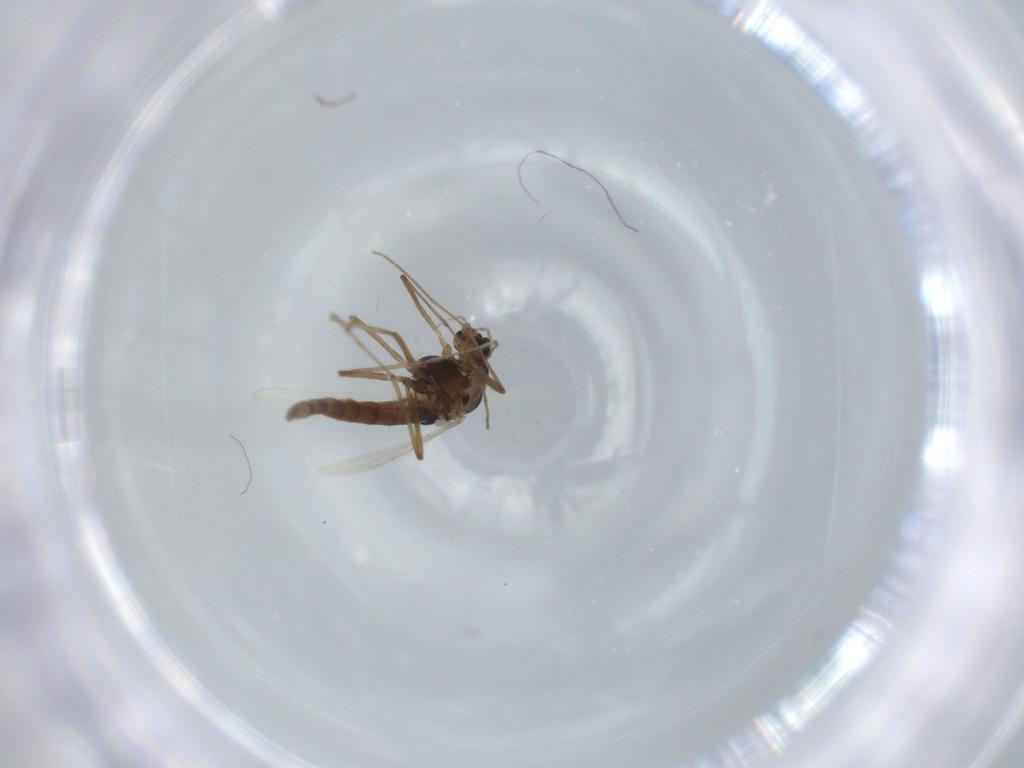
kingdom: Animalia
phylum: Arthropoda
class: Insecta
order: Diptera
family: Chironomidae
